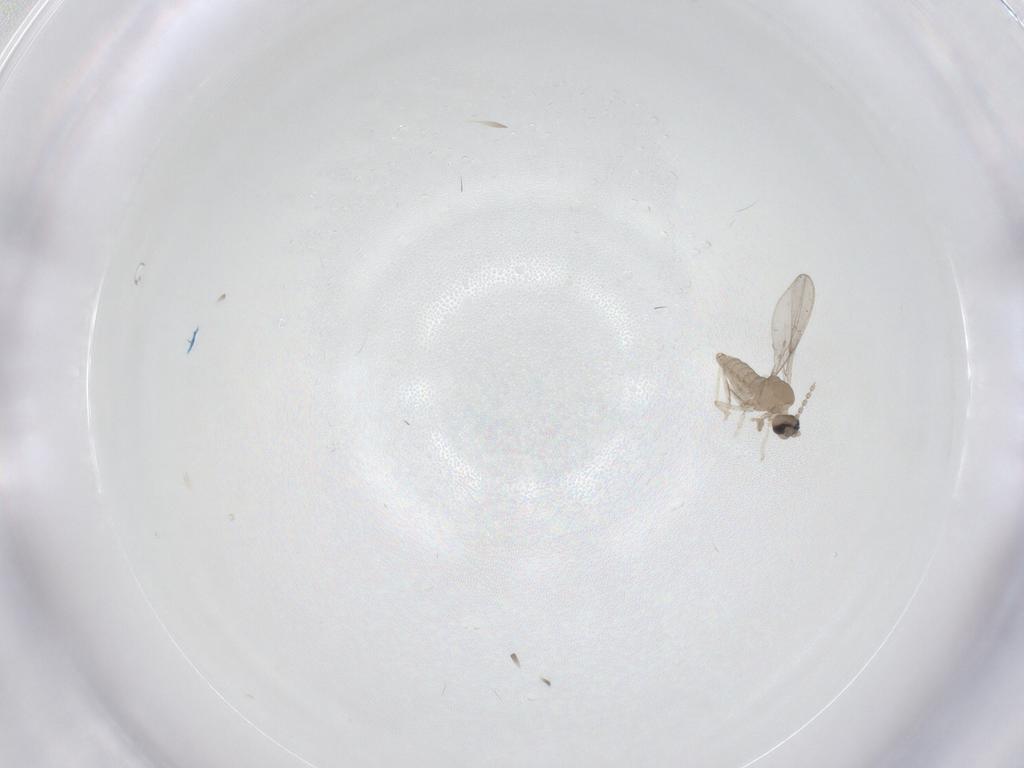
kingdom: Animalia
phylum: Arthropoda
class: Insecta
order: Diptera
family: Cecidomyiidae
